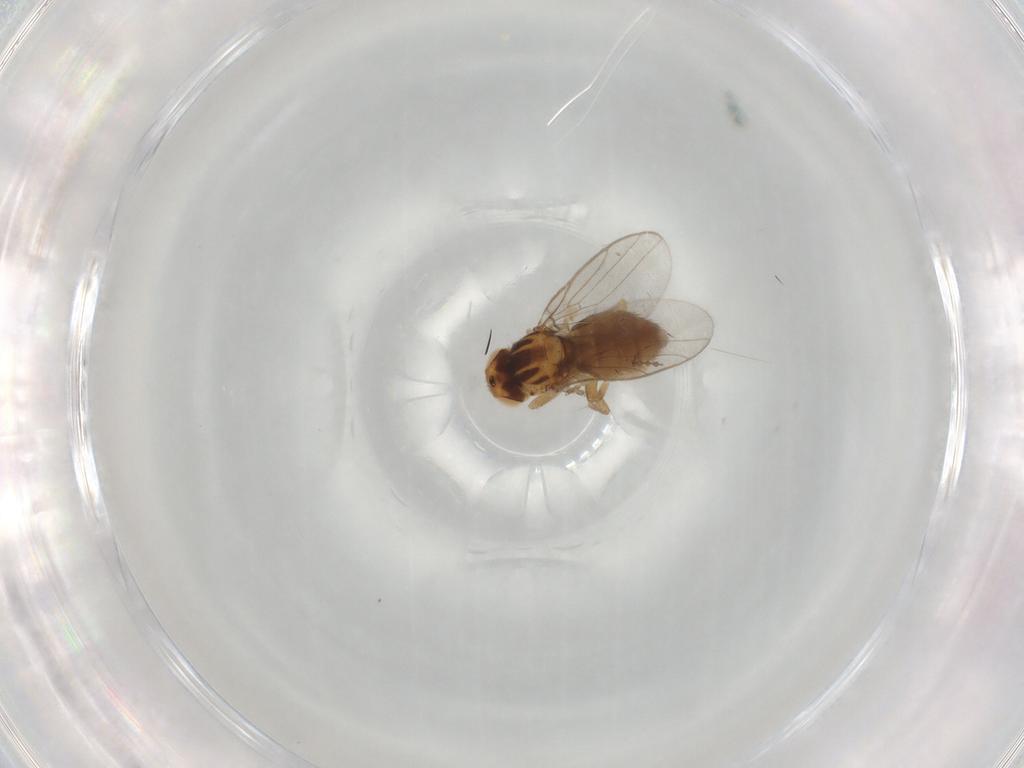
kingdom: Animalia
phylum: Arthropoda
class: Insecta
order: Diptera
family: Chloropidae
